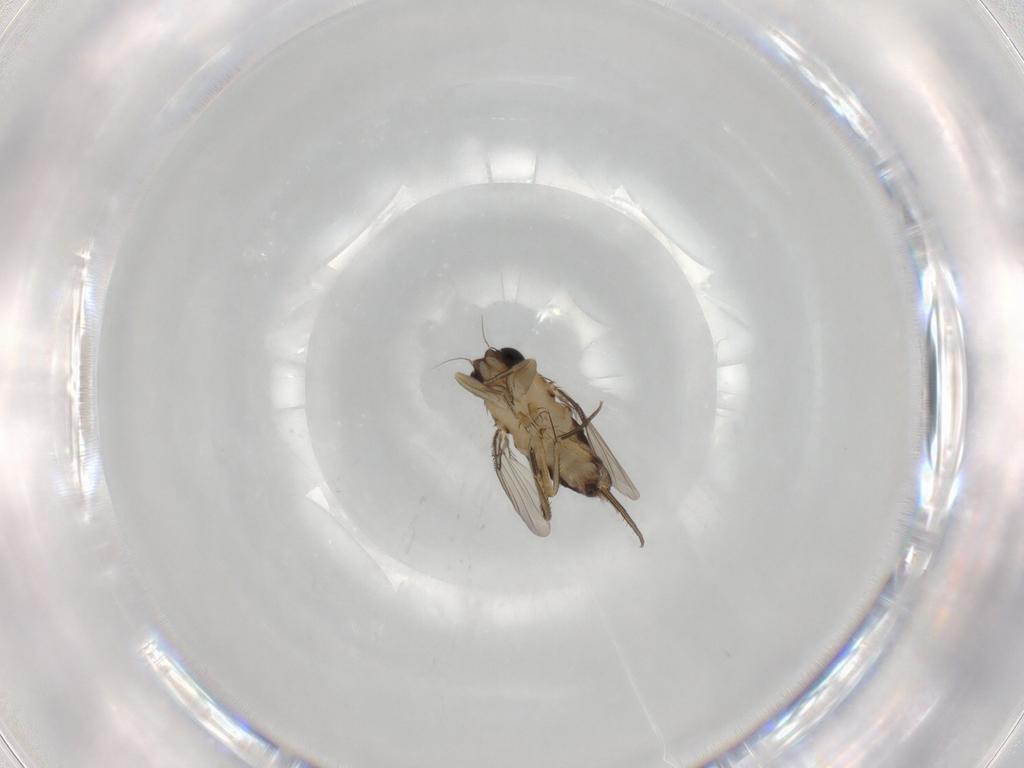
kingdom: Animalia
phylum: Arthropoda
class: Insecta
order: Diptera
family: Phoridae
